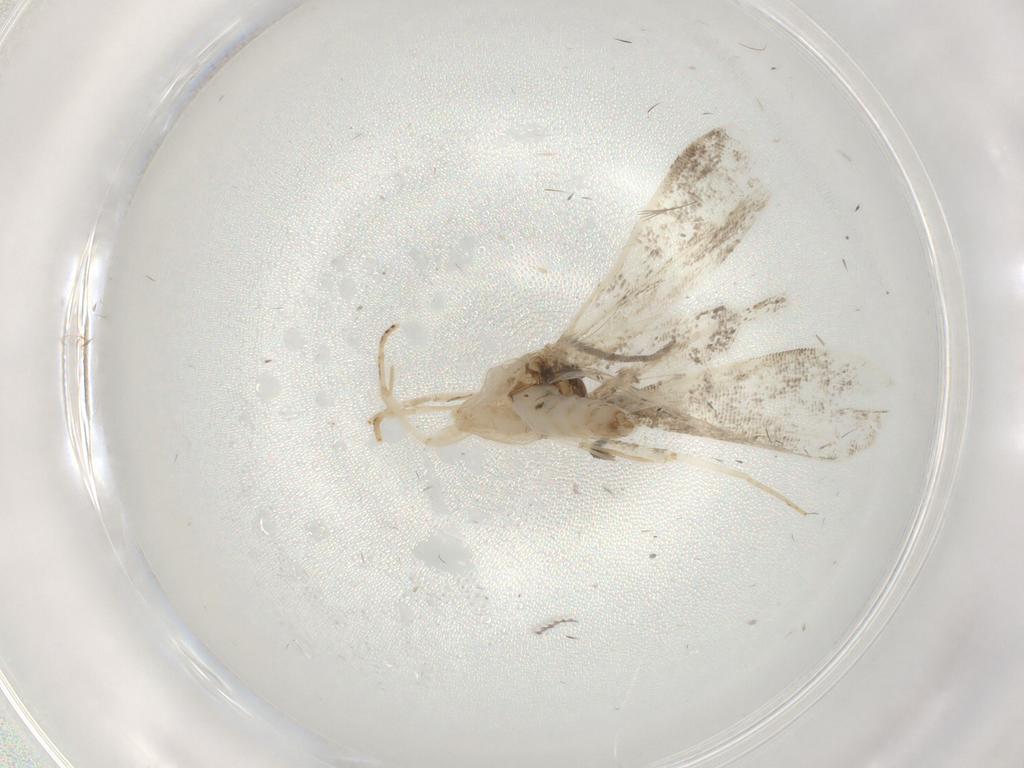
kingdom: Animalia
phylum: Arthropoda
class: Insecta
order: Lepidoptera
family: Dryadaulidae
